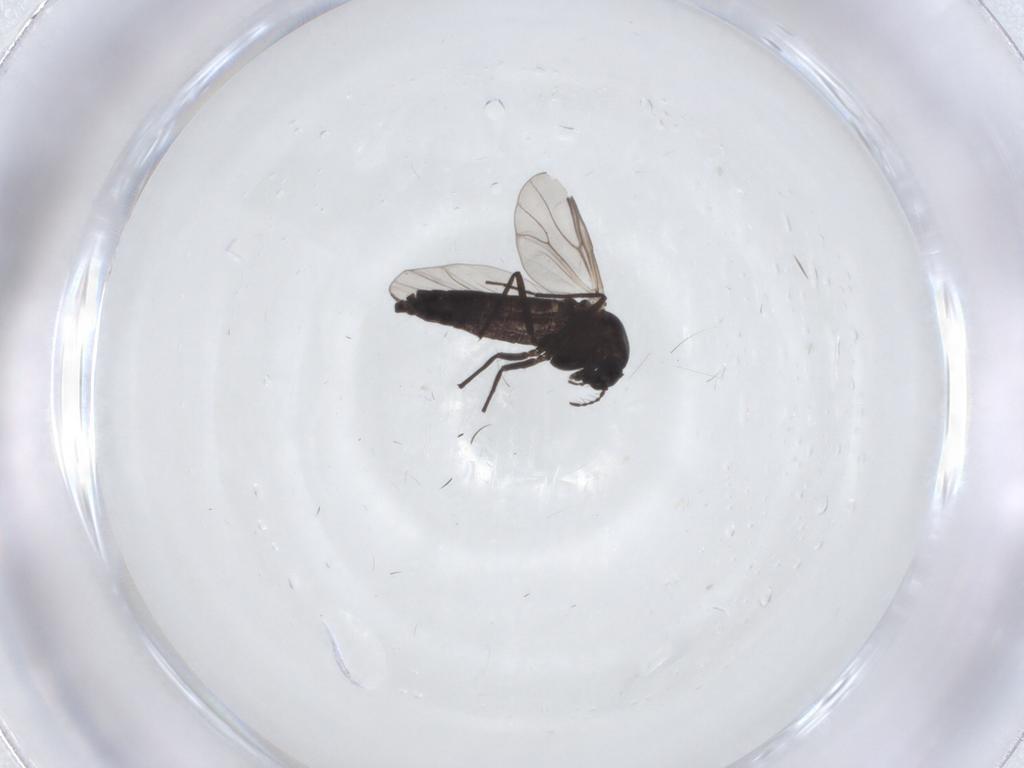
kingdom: Animalia
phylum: Arthropoda
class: Insecta
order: Diptera
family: Chironomidae
